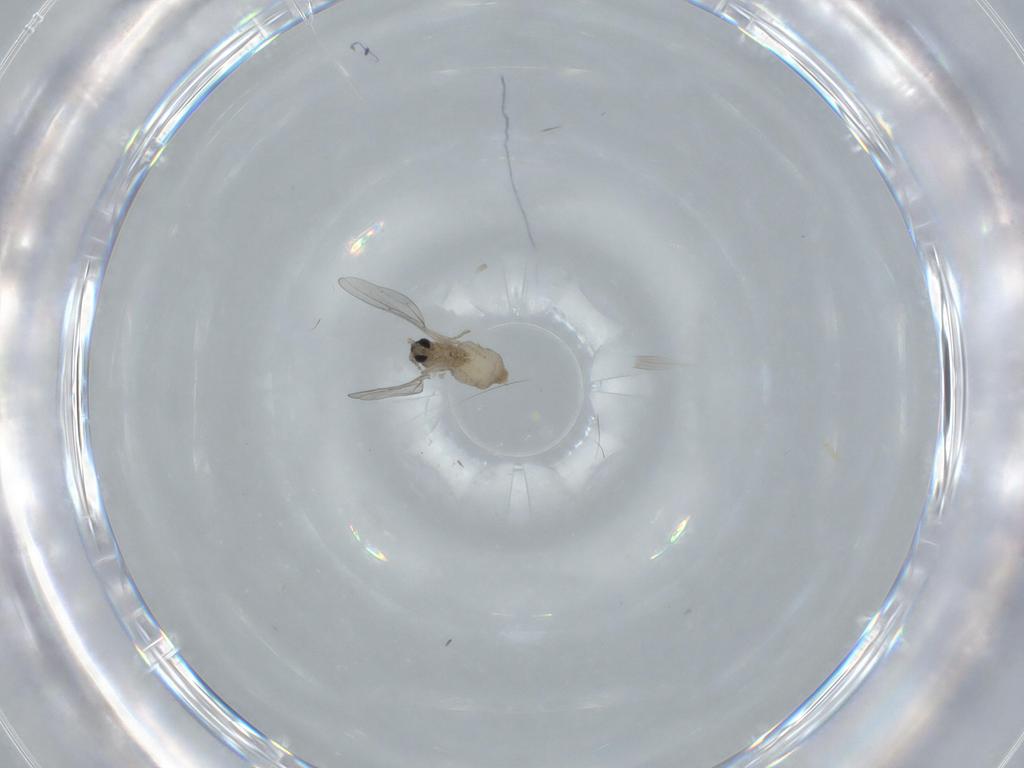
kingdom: Animalia
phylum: Arthropoda
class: Insecta
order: Diptera
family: Cecidomyiidae
